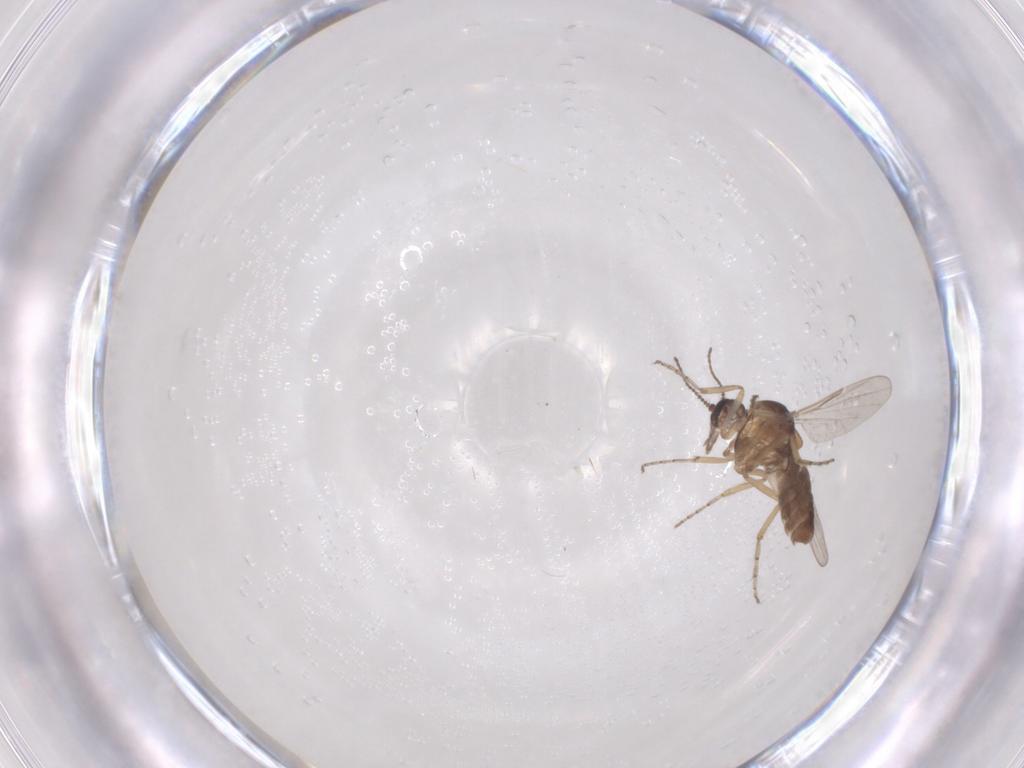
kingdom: Animalia
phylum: Arthropoda
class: Insecta
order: Diptera
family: Ceratopogonidae
